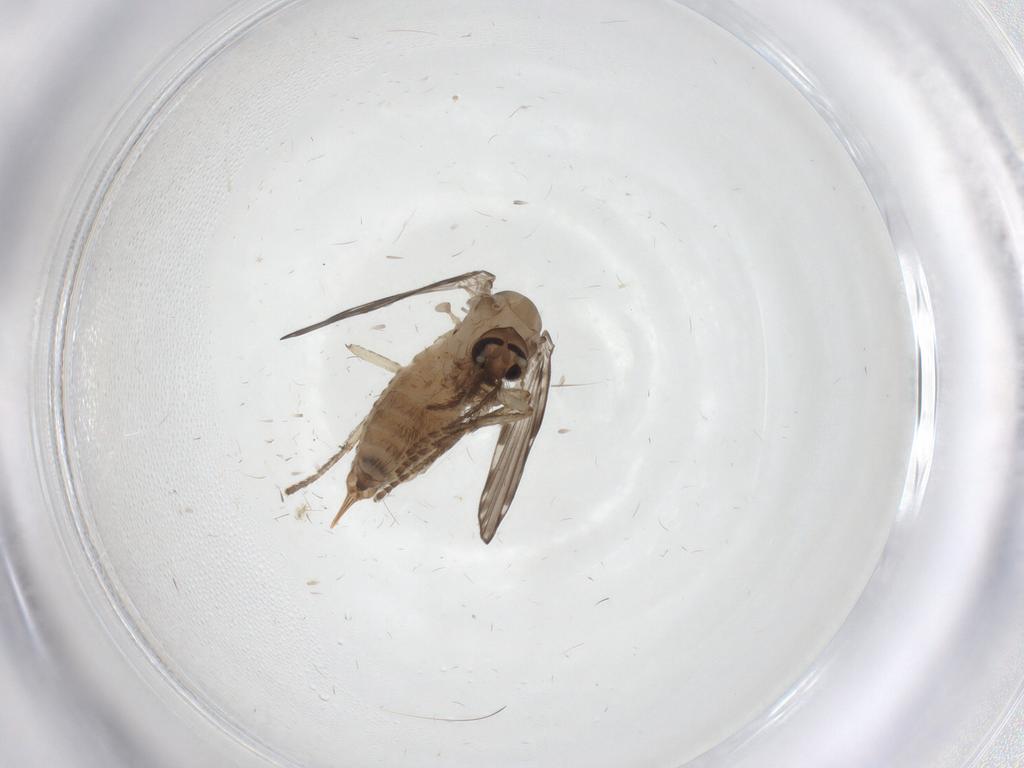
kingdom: Animalia
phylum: Arthropoda
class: Insecta
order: Diptera
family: Psychodidae
